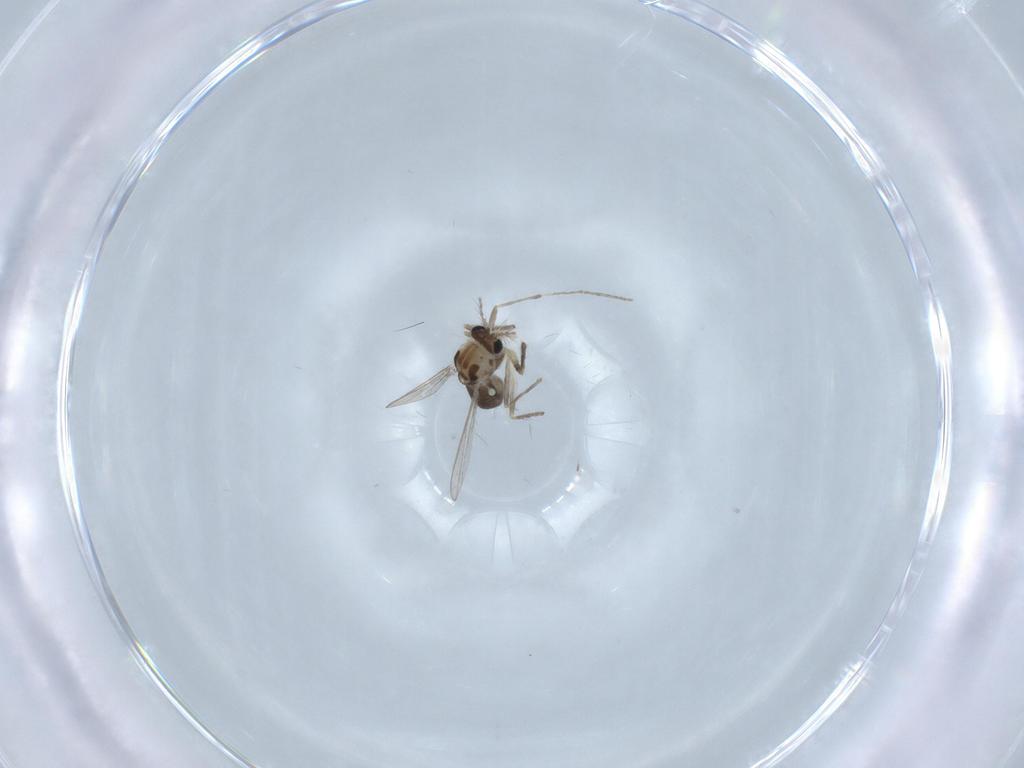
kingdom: Animalia
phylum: Arthropoda
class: Insecta
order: Diptera
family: Chironomidae
